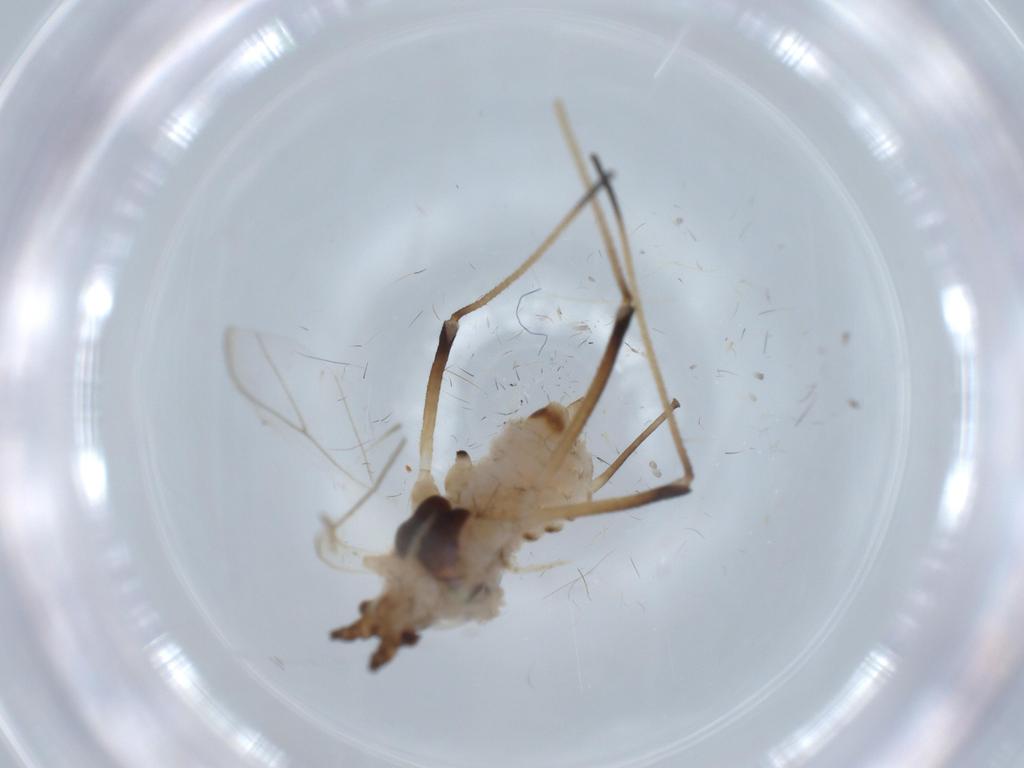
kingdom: Animalia
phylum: Arthropoda
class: Insecta
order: Hemiptera
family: Aphididae
